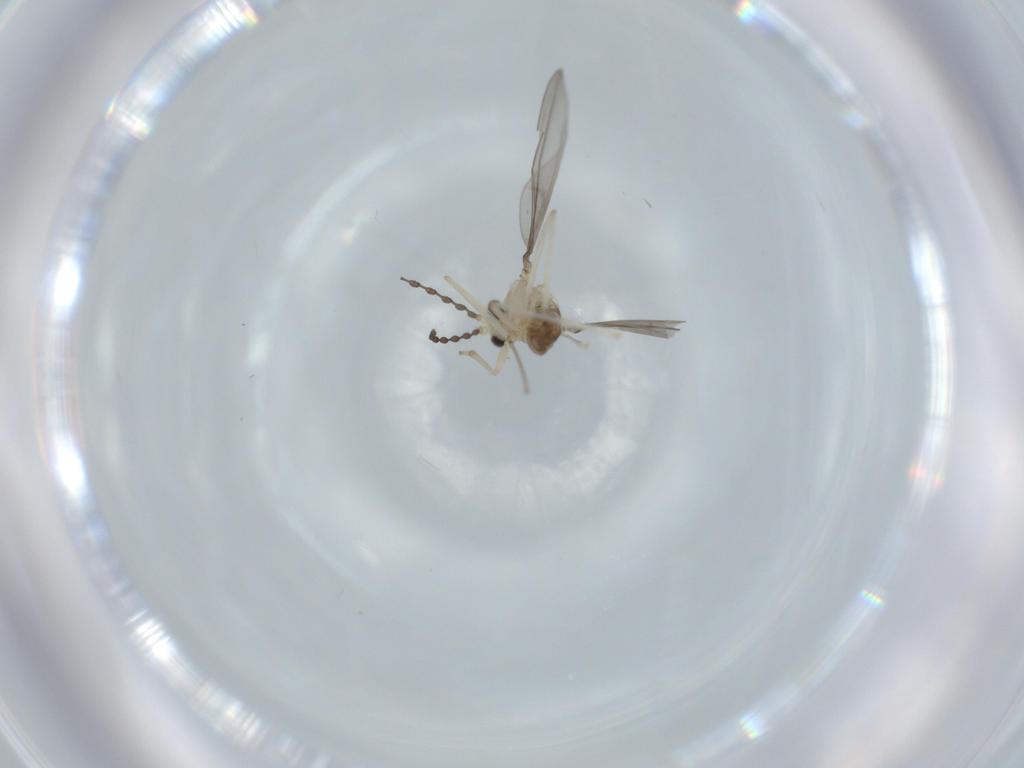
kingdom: Animalia
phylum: Arthropoda
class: Insecta
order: Diptera
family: Cecidomyiidae
